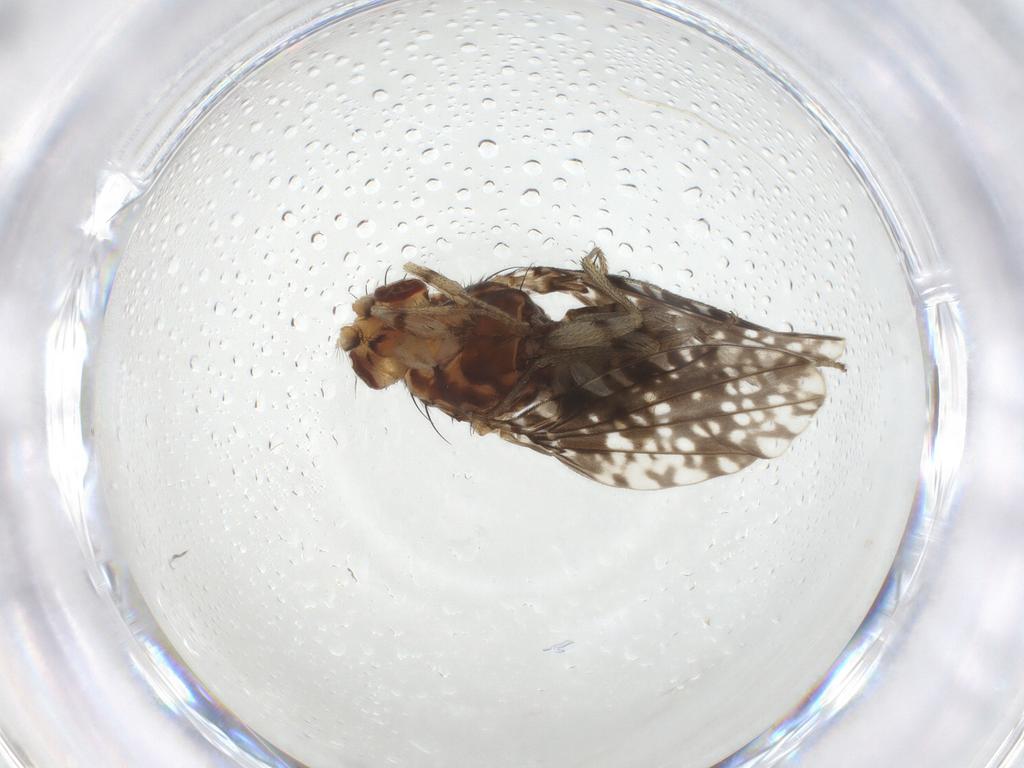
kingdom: Animalia
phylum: Arthropoda
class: Insecta
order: Diptera
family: Lauxaniidae
